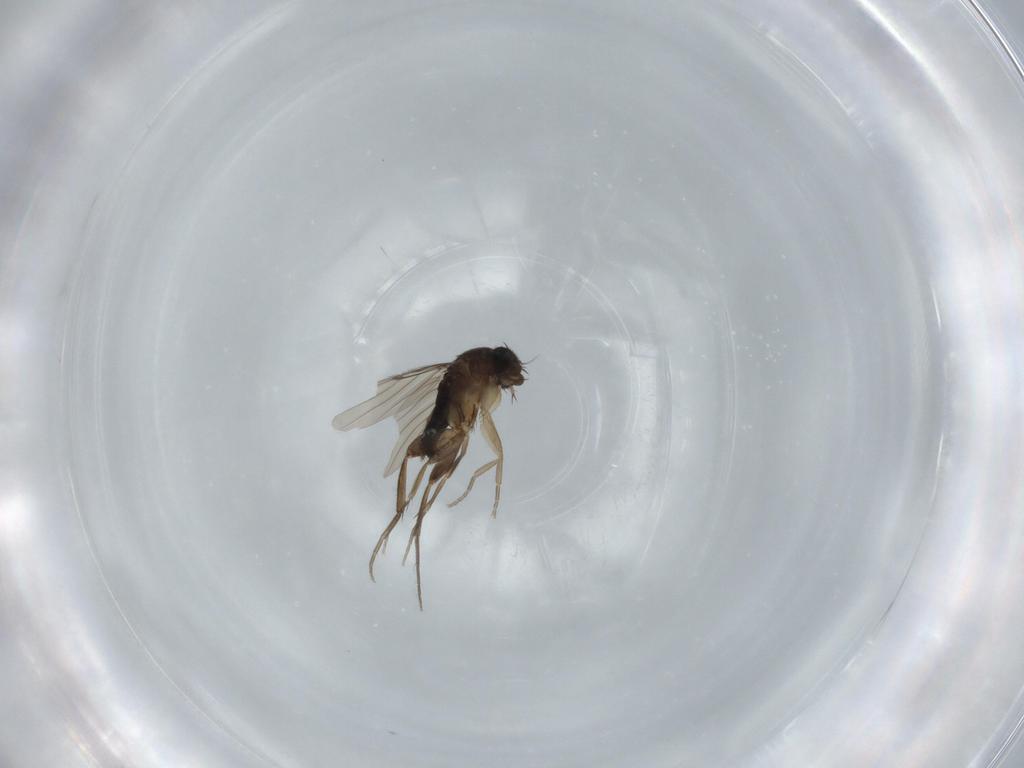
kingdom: Animalia
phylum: Arthropoda
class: Insecta
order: Diptera
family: Phoridae
